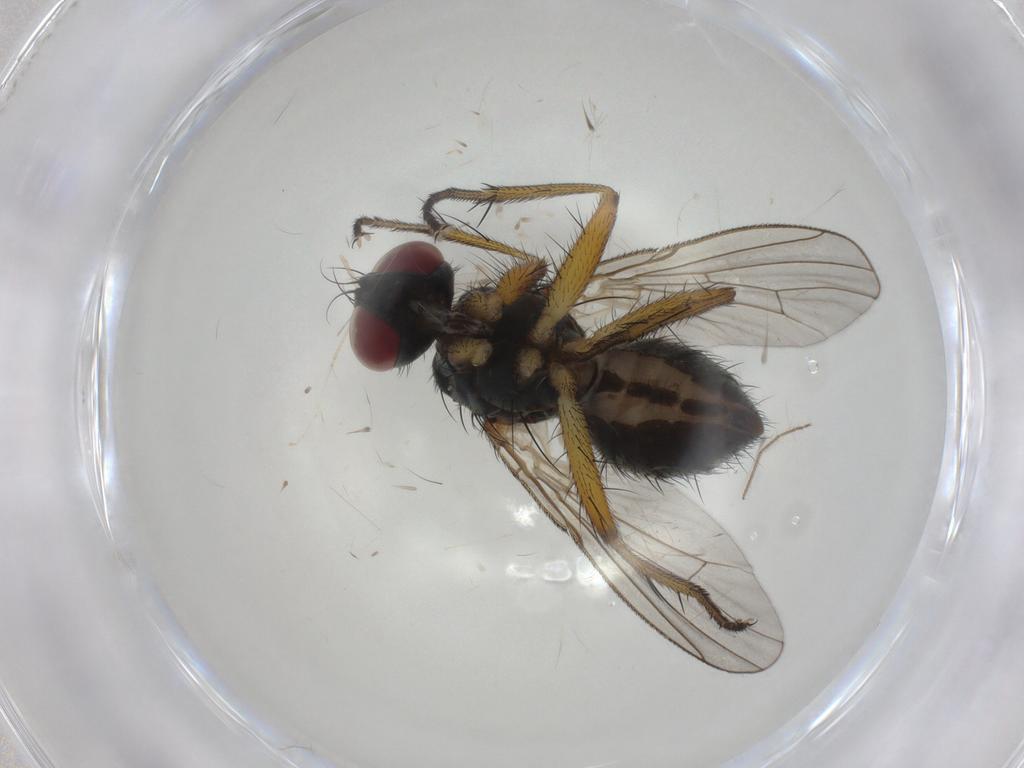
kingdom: Animalia
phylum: Arthropoda
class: Insecta
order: Diptera
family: Muscidae
